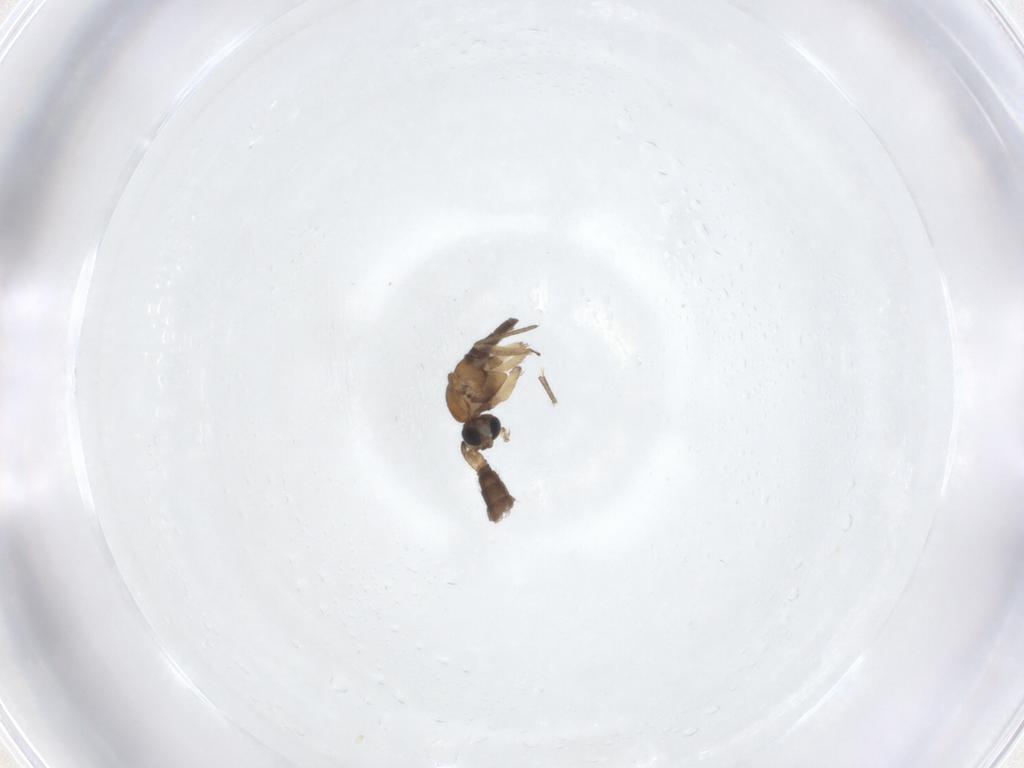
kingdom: Animalia
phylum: Arthropoda
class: Insecta
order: Diptera
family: Sciaridae
